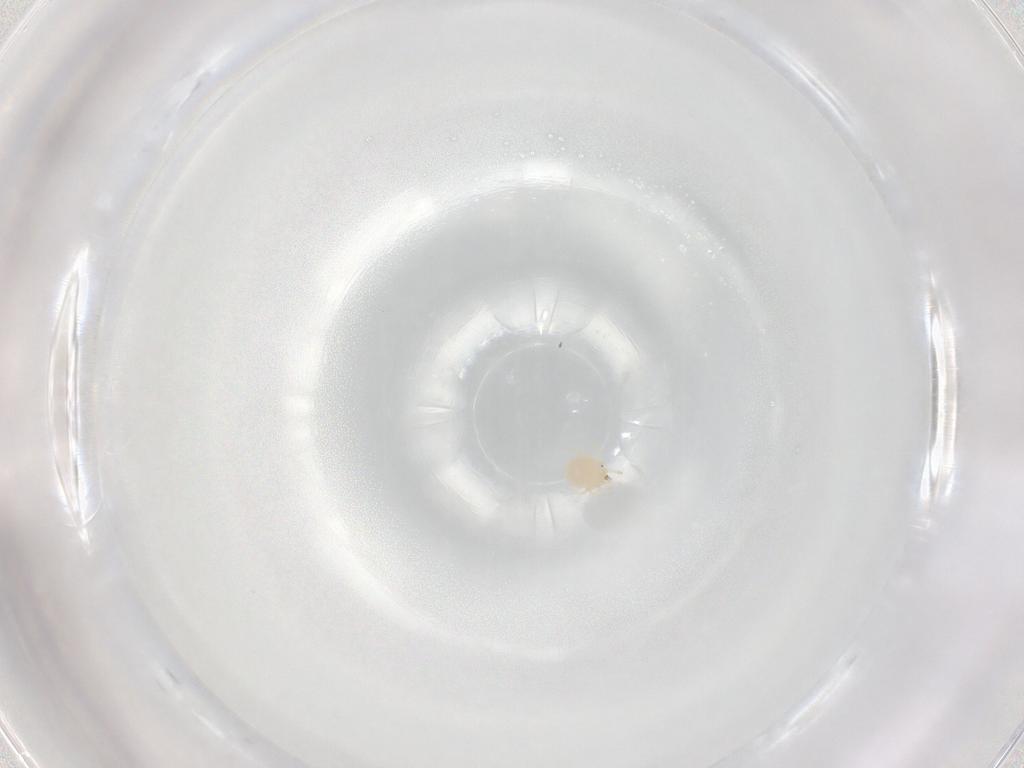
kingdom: Animalia
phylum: Arthropoda
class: Arachnida
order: Trombidiformes
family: Hydryphantidae
